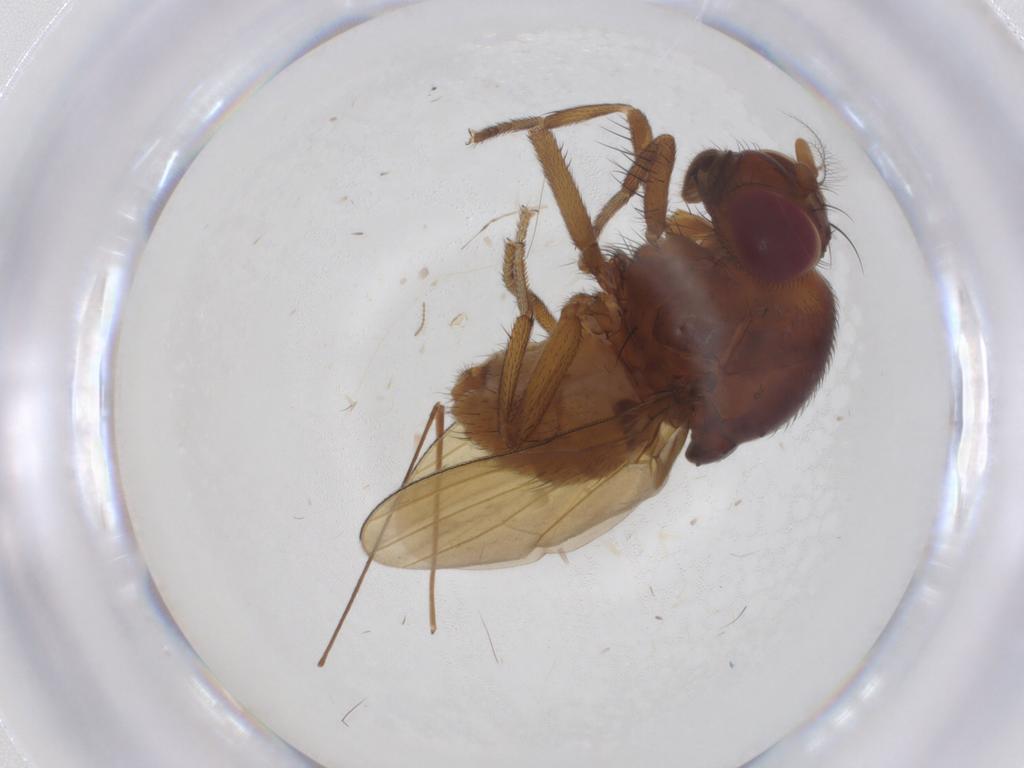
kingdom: Animalia
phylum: Arthropoda
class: Insecta
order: Diptera
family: Lauxaniidae
